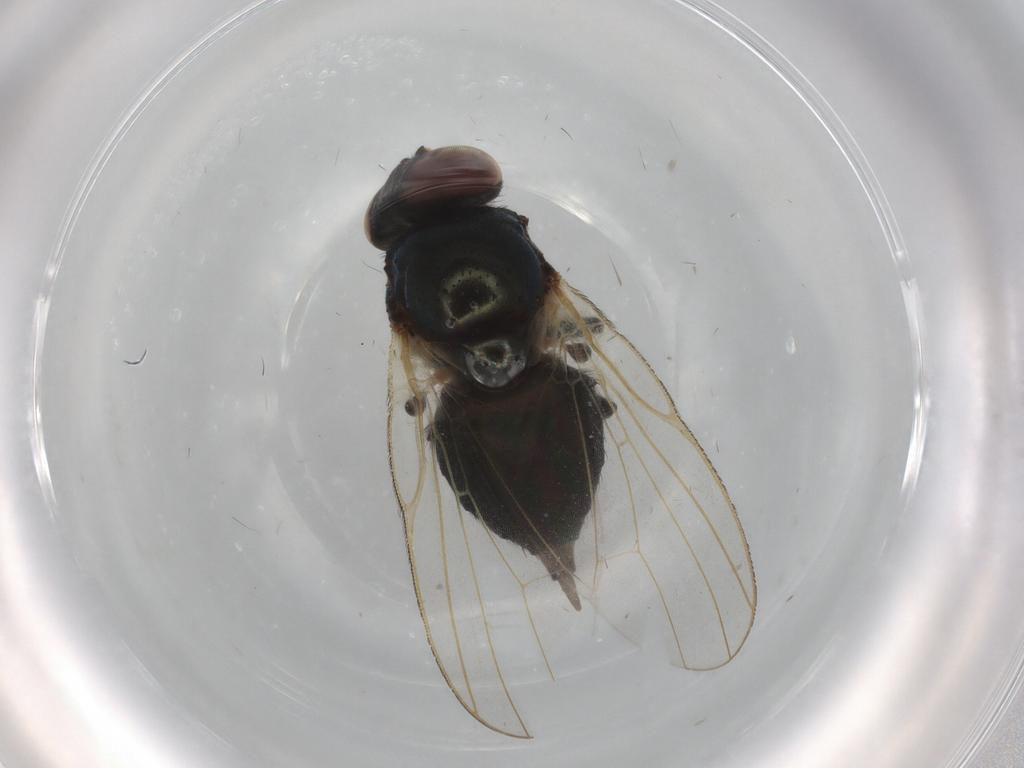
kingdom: Animalia
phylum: Arthropoda
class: Insecta
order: Diptera
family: Lonchaeidae
